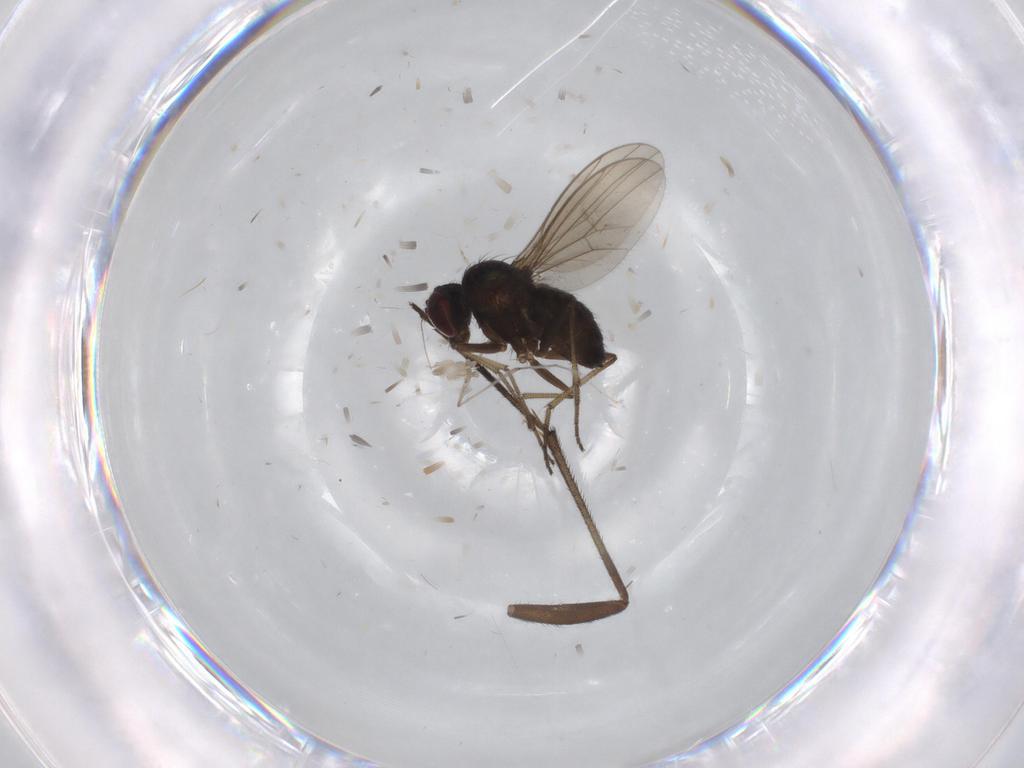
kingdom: Animalia
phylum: Arthropoda
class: Insecta
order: Diptera
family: Dolichopodidae
